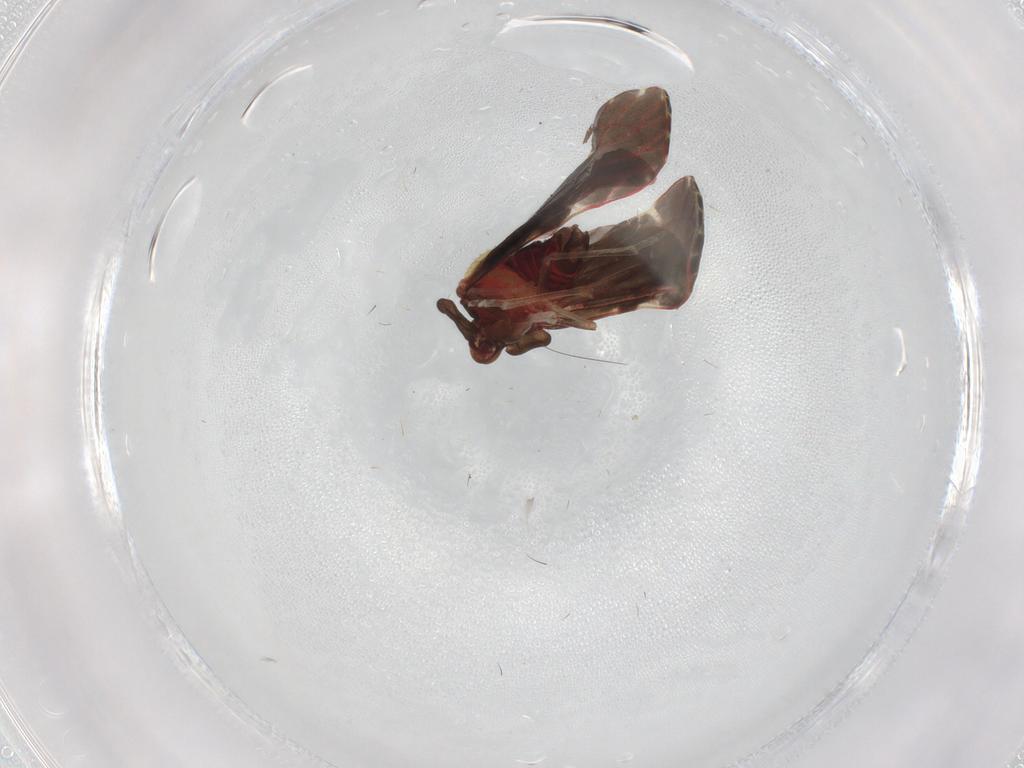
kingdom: Animalia
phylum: Arthropoda
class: Insecta
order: Hemiptera
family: Derbidae
